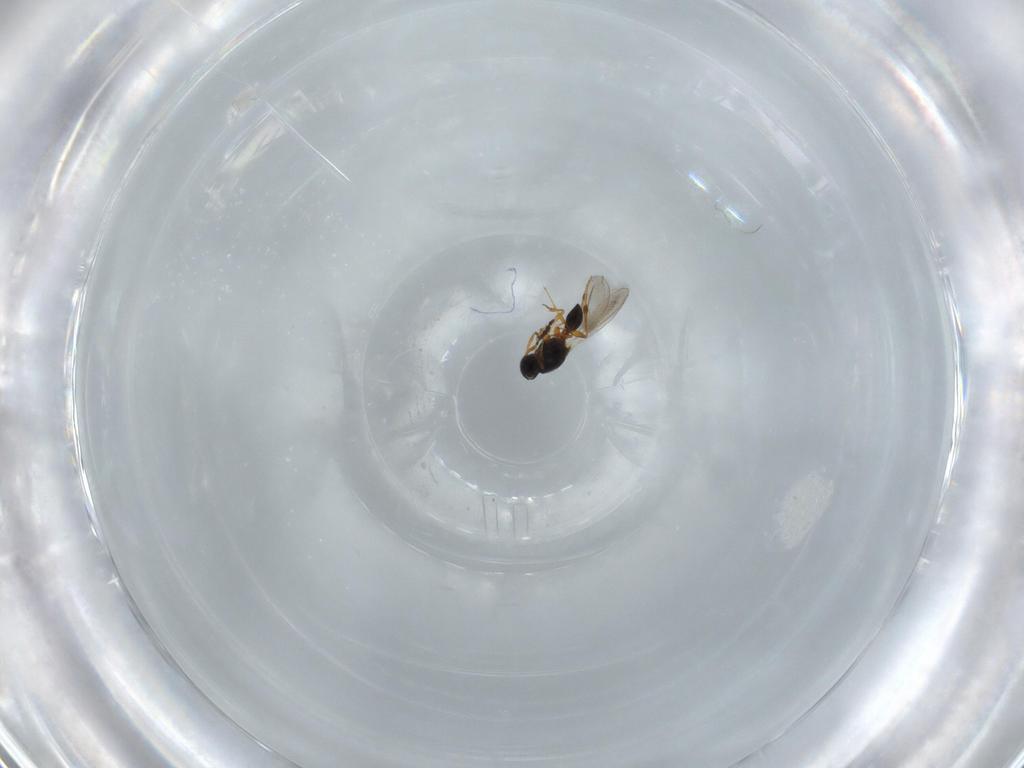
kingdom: Animalia
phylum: Arthropoda
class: Insecta
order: Hymenoptera
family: Platygastridae
